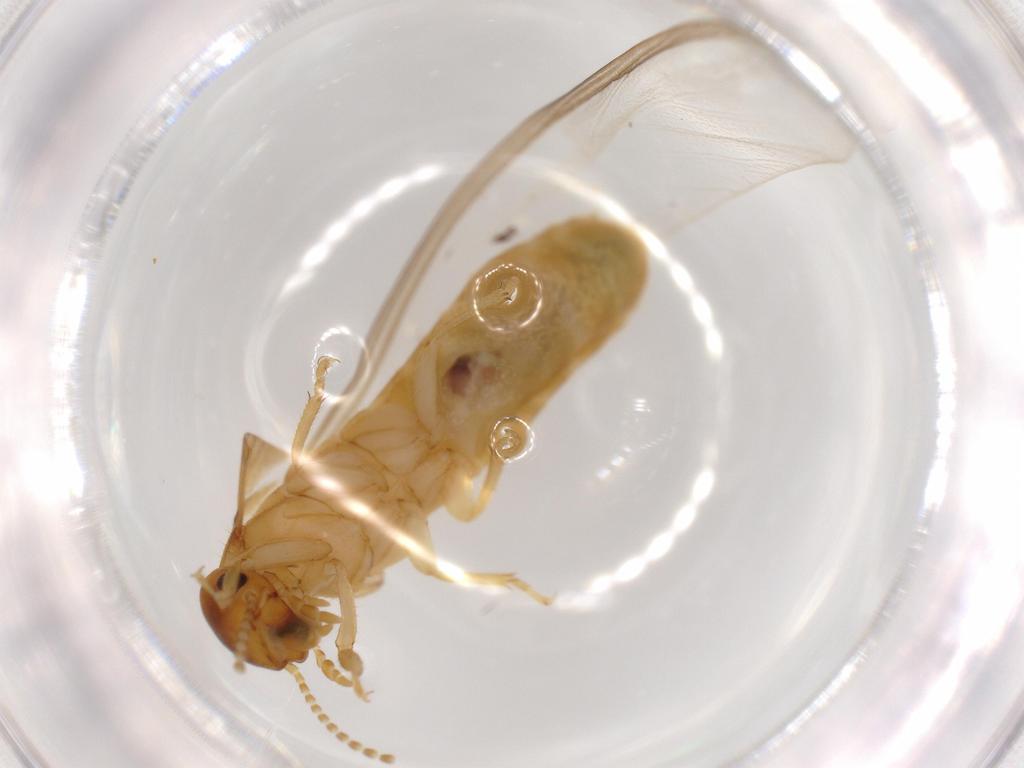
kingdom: Animalia
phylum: Arthropoda
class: Insecta
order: Blattodea
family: Kalotermitidae
